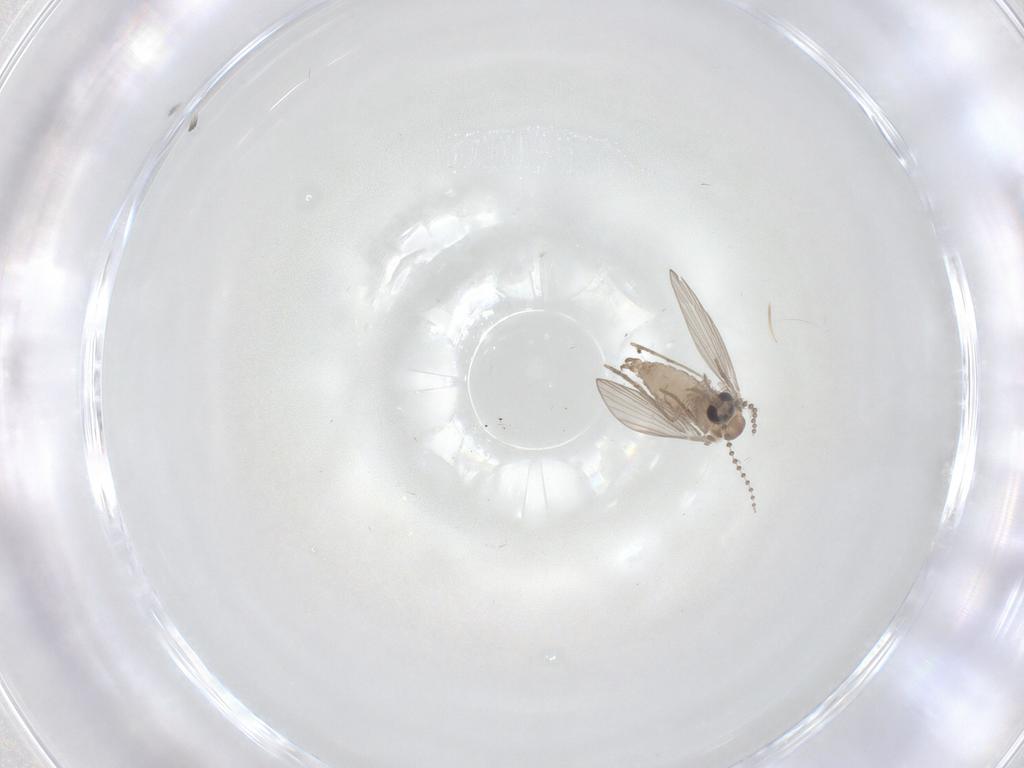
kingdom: Animalia
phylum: Arthropoda
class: Insecta
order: Diptera
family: Psychodidae
